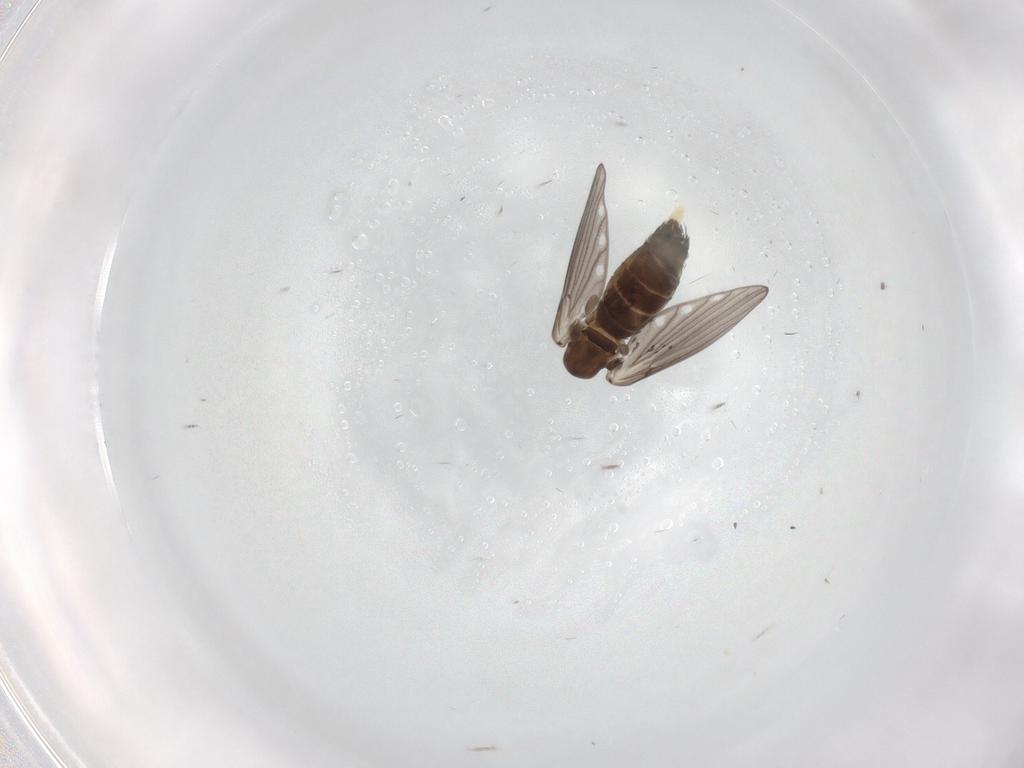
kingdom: Animalia
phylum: Arthropoda
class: Insecta
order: Diptera
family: Psychodidae
